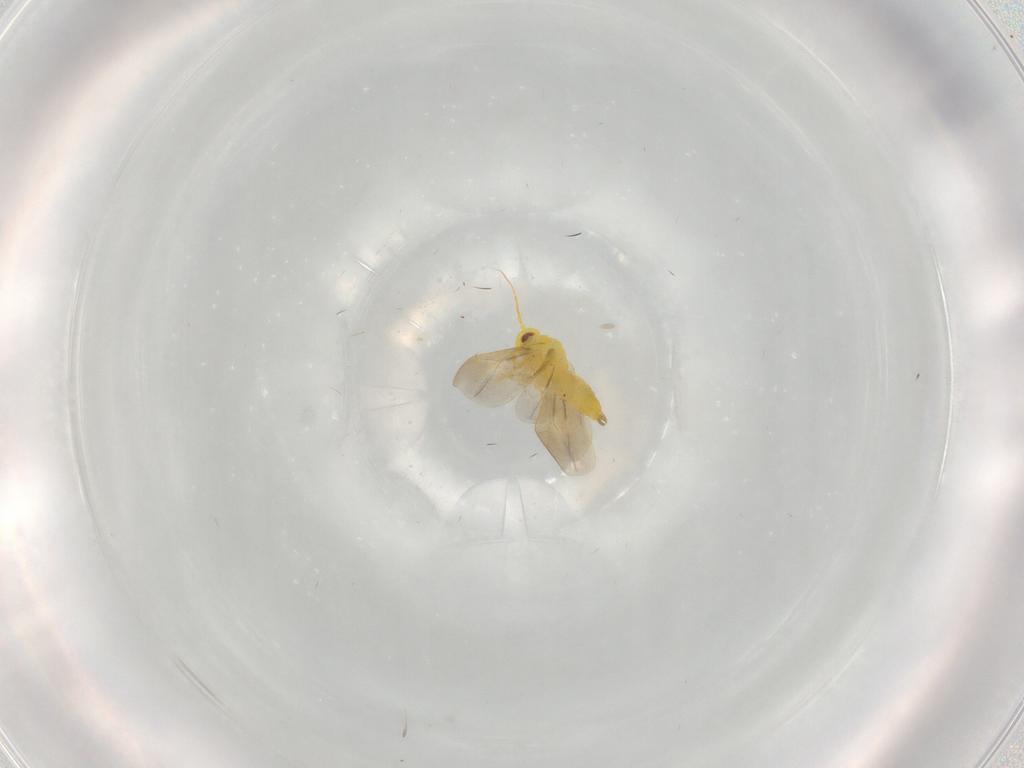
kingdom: Animalia
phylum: Arthropoda
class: Insecta
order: Hemiptera
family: Aleyrodidae
